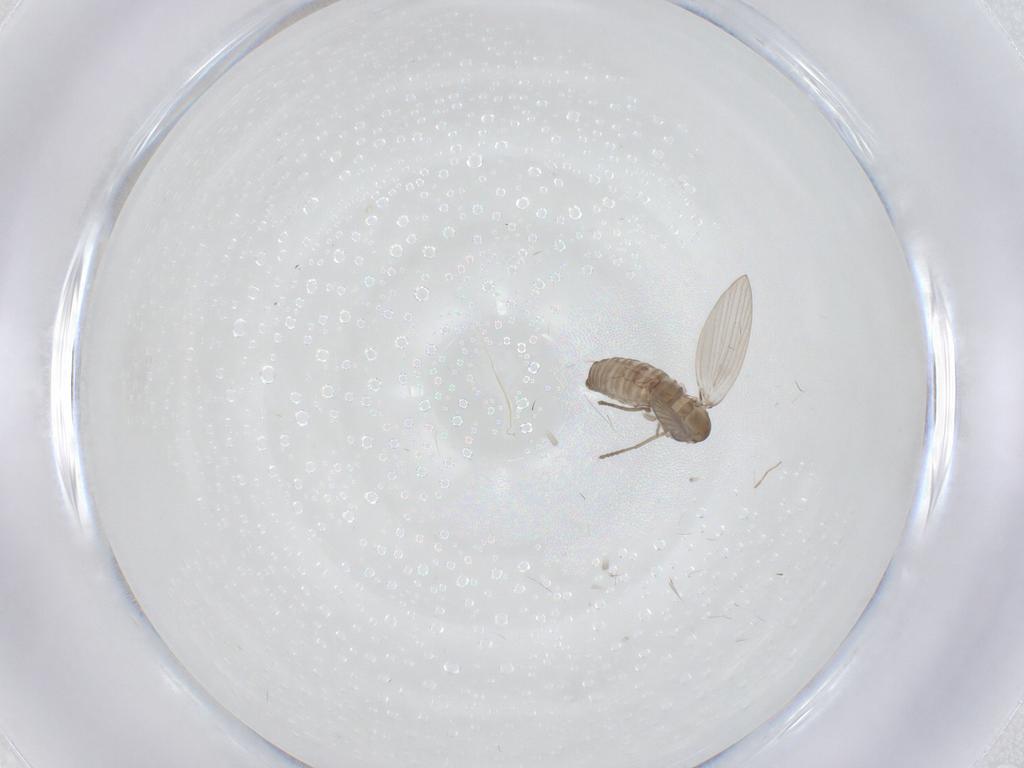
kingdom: Animalia
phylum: Arthropoda
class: Insecta
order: Diptera
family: Psychodidae
